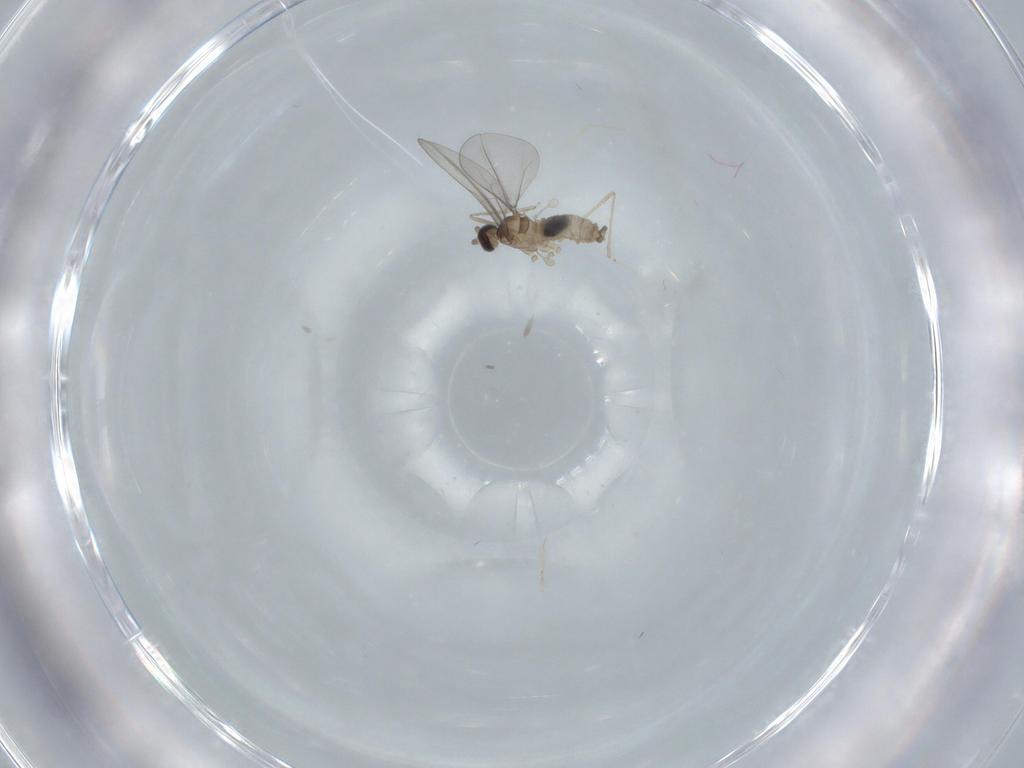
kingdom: Animalia
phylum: Arthropoda
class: Insecta
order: Diptera
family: Cecidomyiidae
